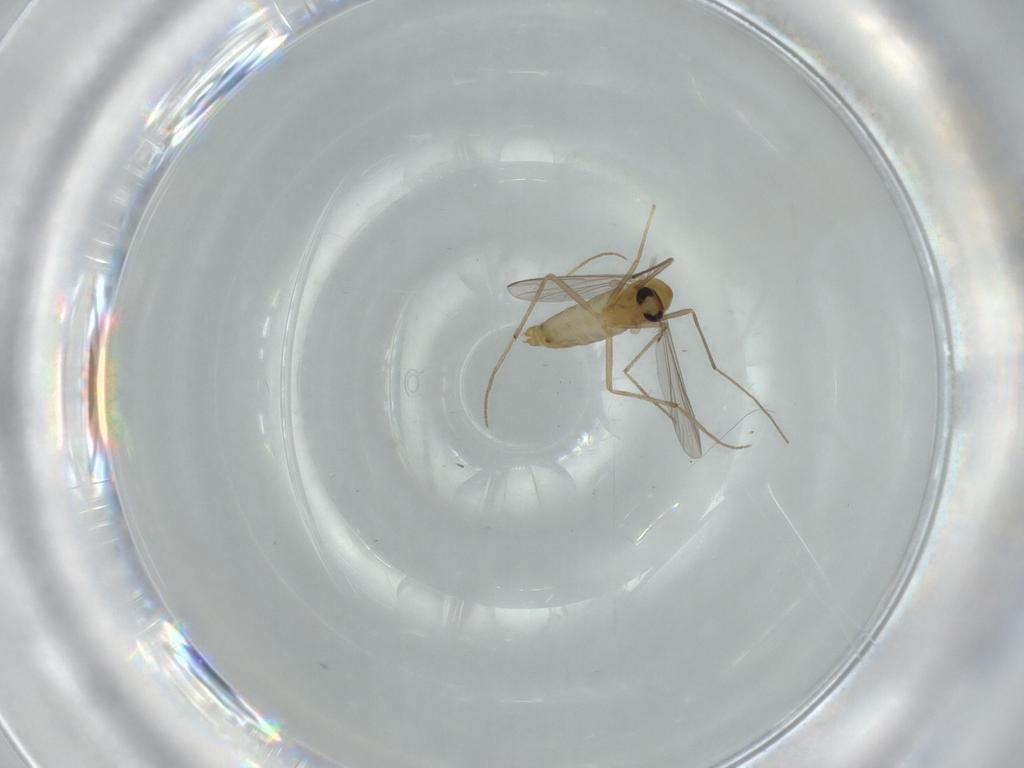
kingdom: Animalia
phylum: Arthropoda
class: Insecta
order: Diptera
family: Chironomidae
